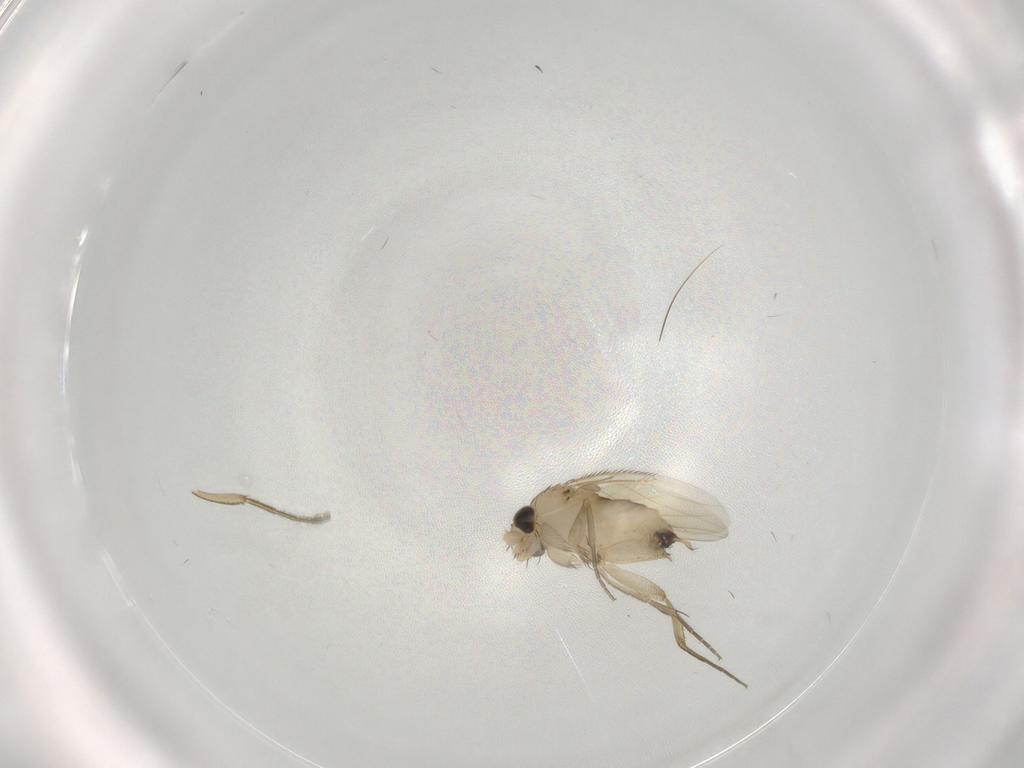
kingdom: Animalia
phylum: Arthropoda
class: Insecta
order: Diptera
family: Phoridae
